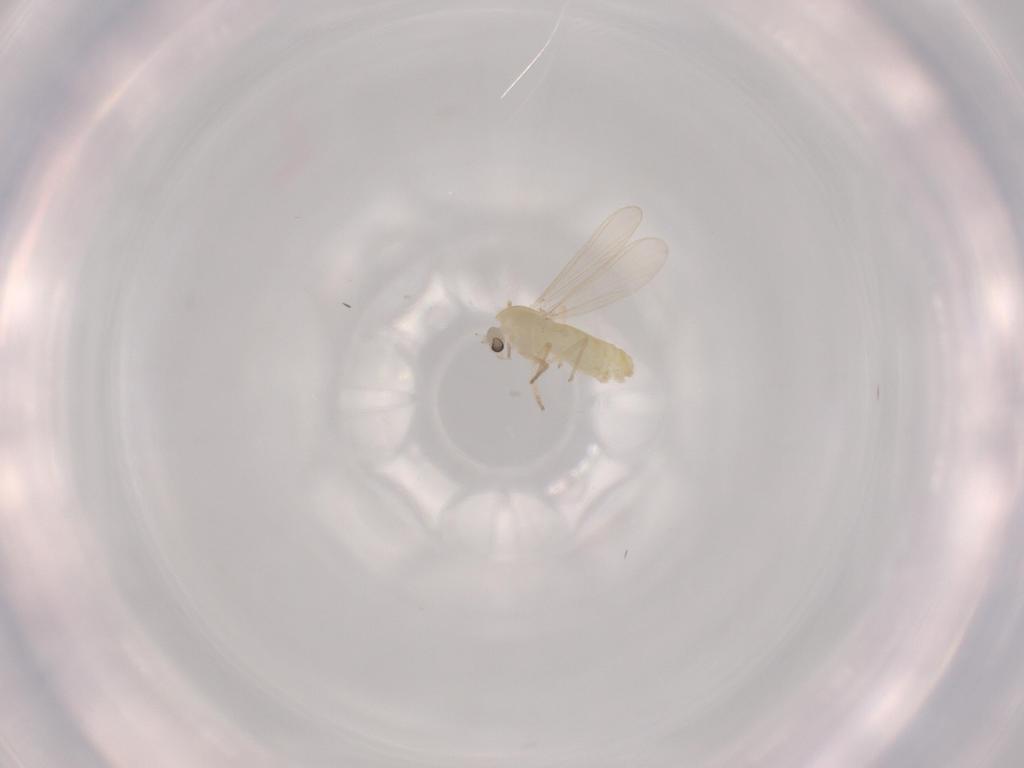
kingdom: Animalia
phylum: Arthropoda
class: Insecta
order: Diptera
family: Chironomidae
